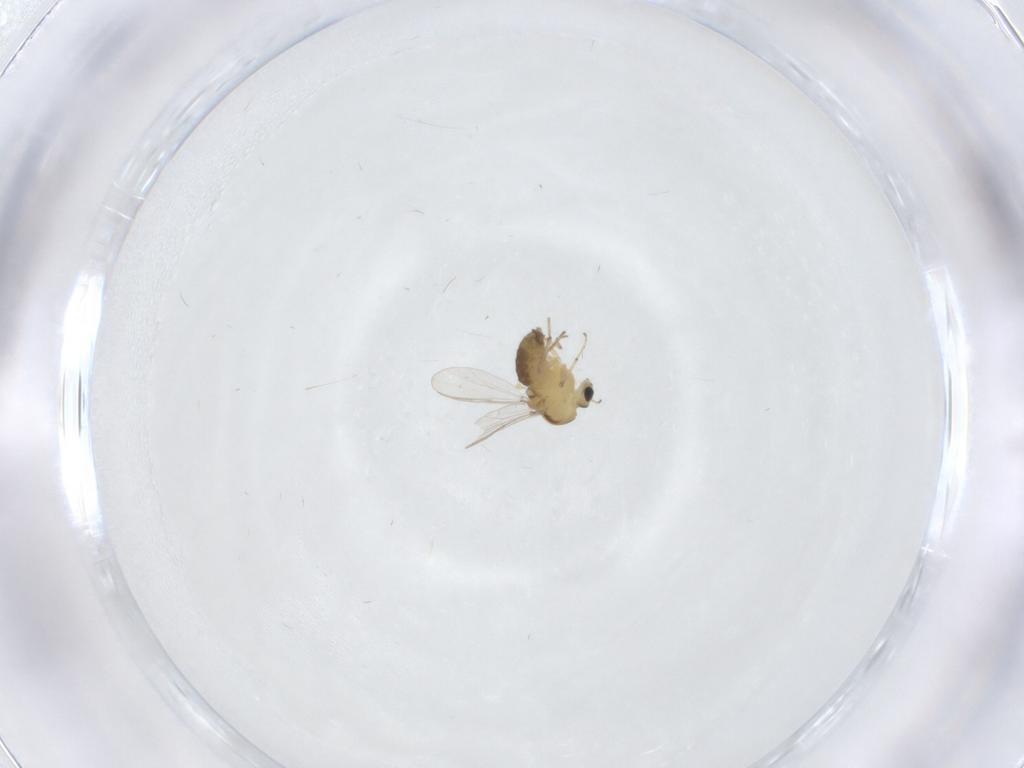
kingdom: Animalia
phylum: Arthropoda
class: Insecta
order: Diptera
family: Chironomidae
